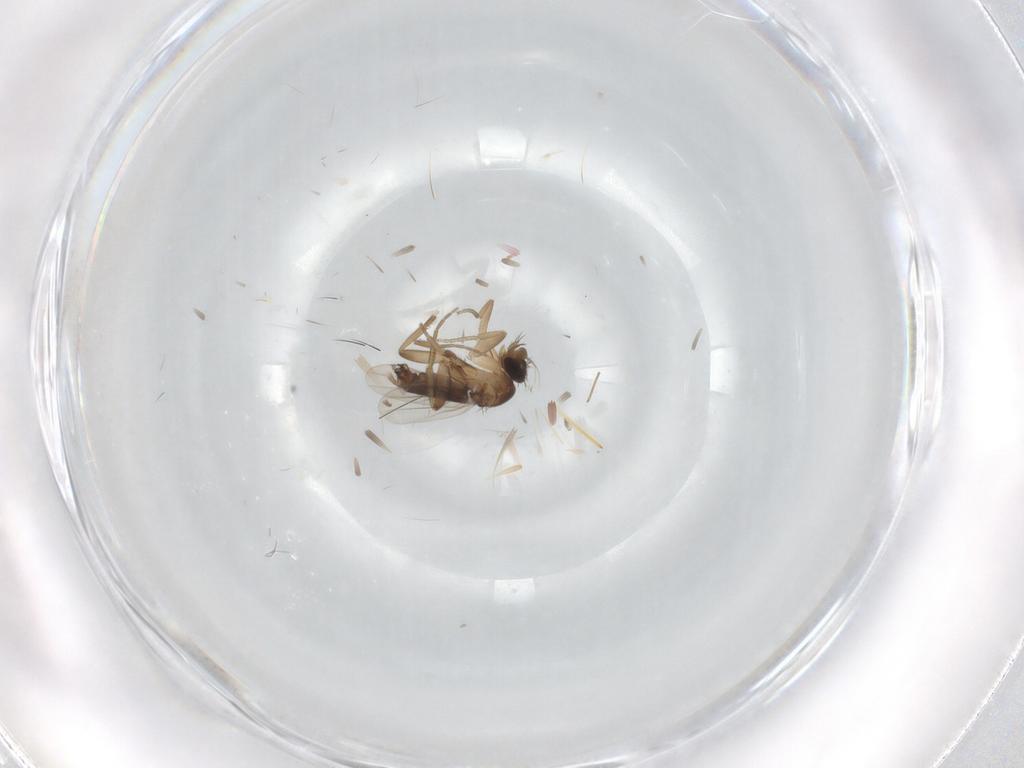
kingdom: Animalia
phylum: Arthropoda
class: Insecta
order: Diptera
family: Phoridae
